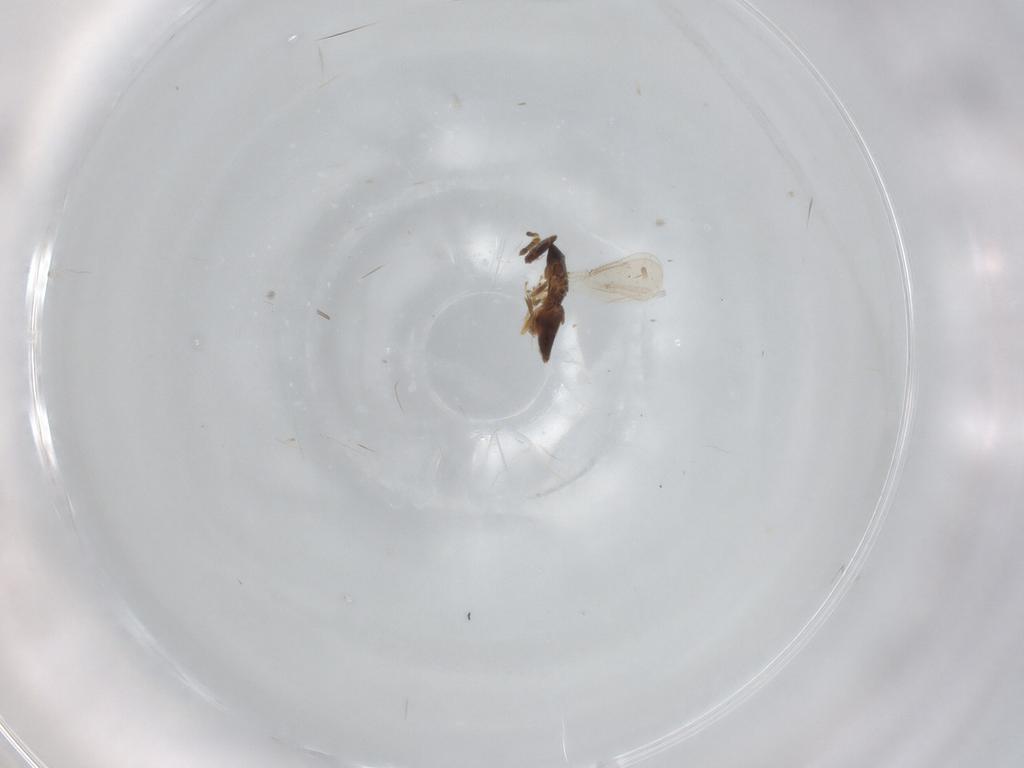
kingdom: Animalia
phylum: Arthropoda
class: Insecta
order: Hymenoptera
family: Eulophidae
